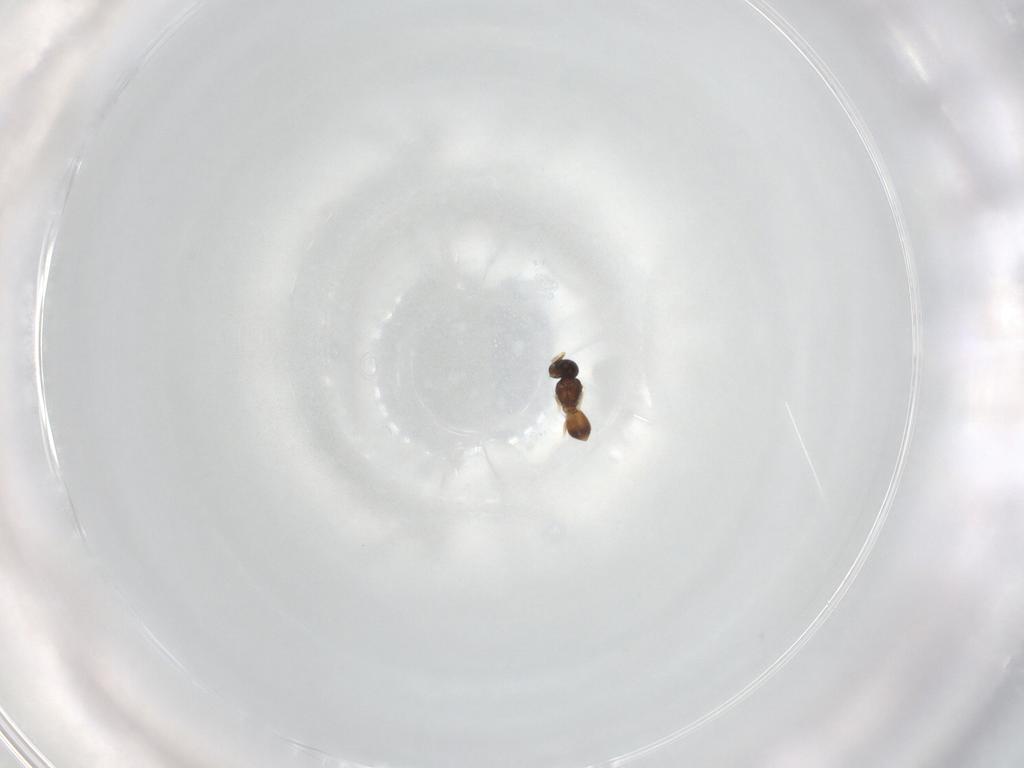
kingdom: Animalia
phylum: Arthropoda
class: Insecta
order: Hymenoptera
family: Scelionidae
